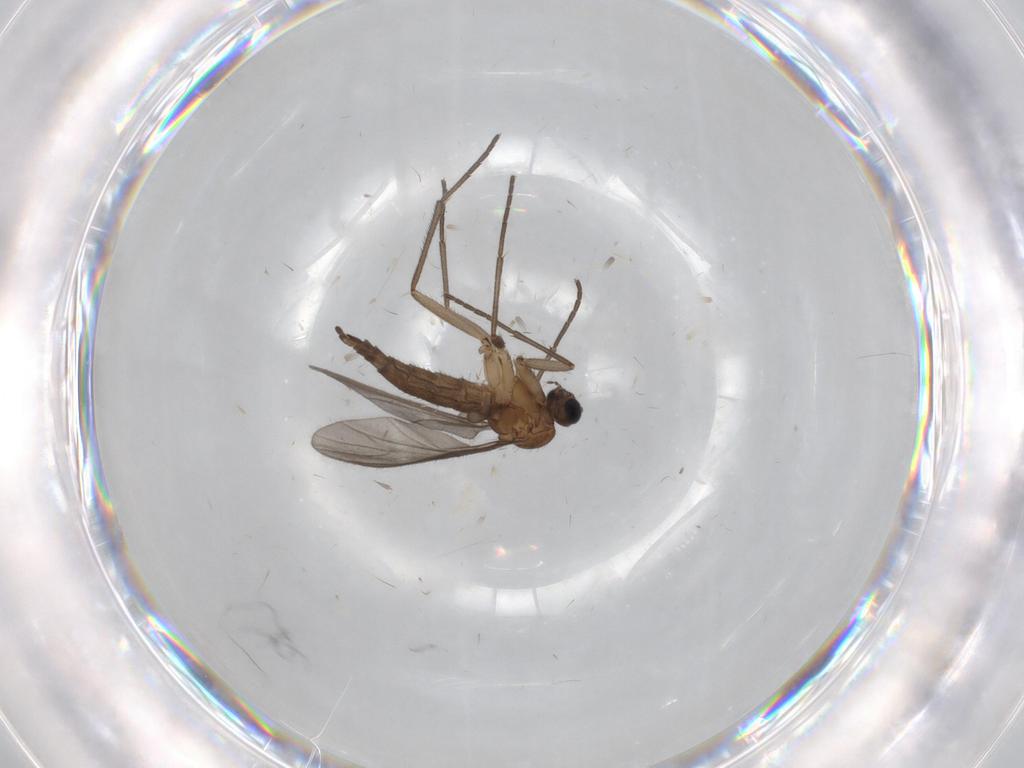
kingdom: Animalia
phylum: Arthropoda
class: Insecta
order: Diptera
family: Sciaridae
